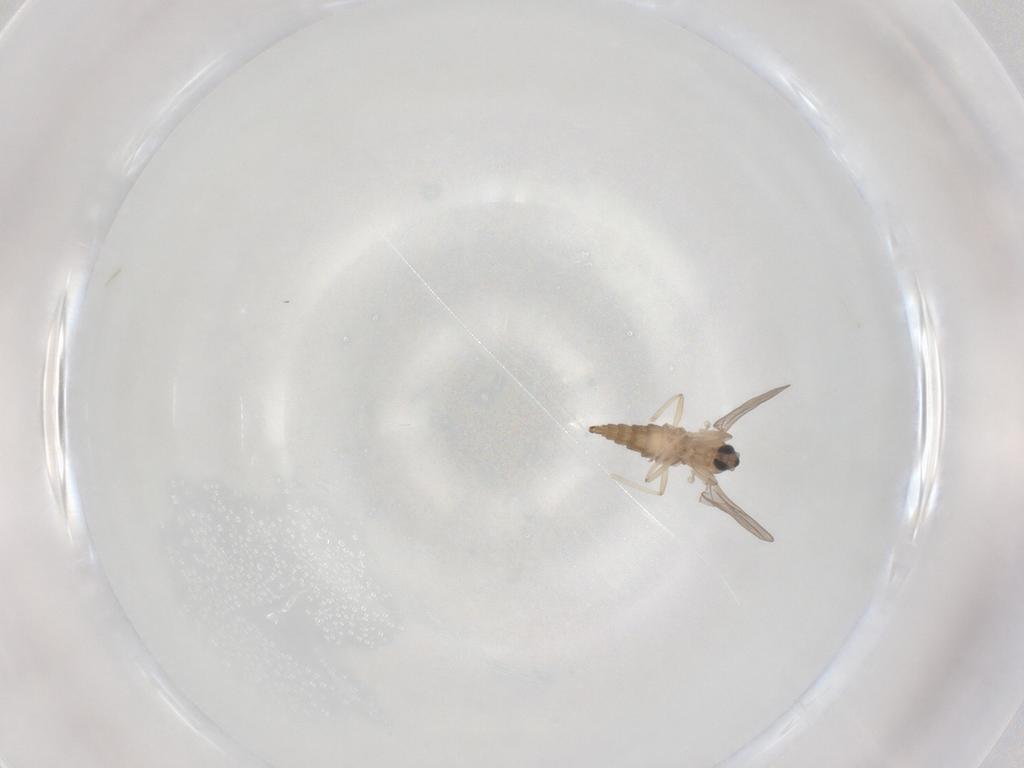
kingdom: Animalia
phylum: Arthropoda
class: Insecta
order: Diptera
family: Cecidomyiidae
